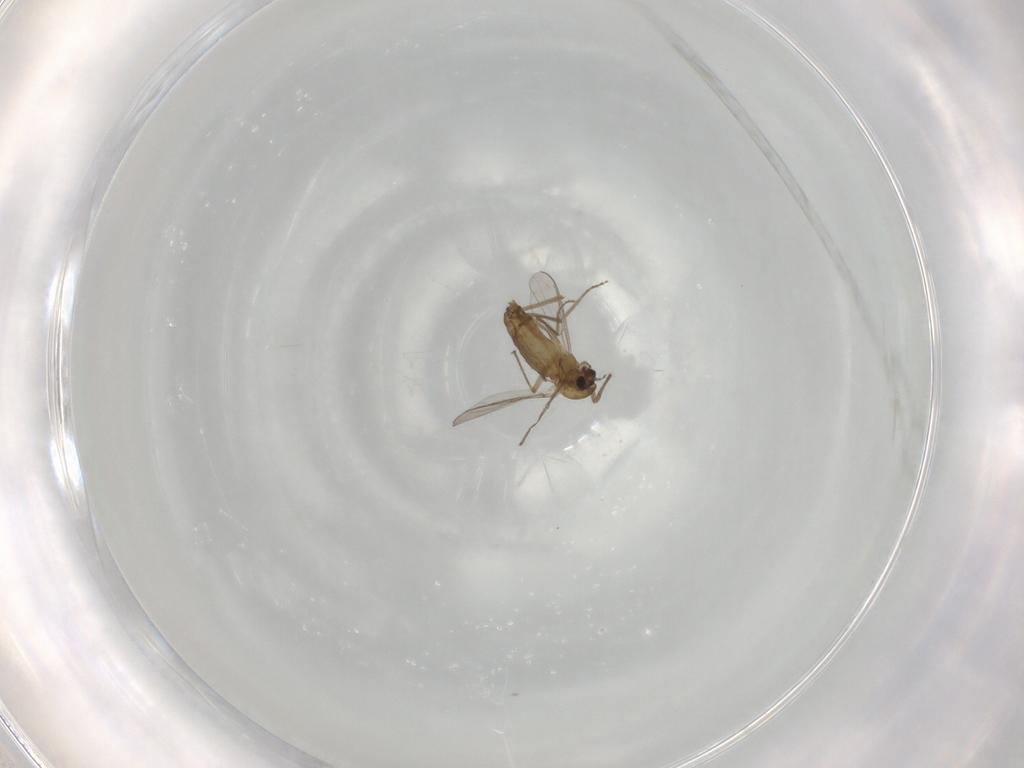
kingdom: Animalia
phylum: Arthropoda
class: Insecta
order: Diptera
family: Chironomidae
